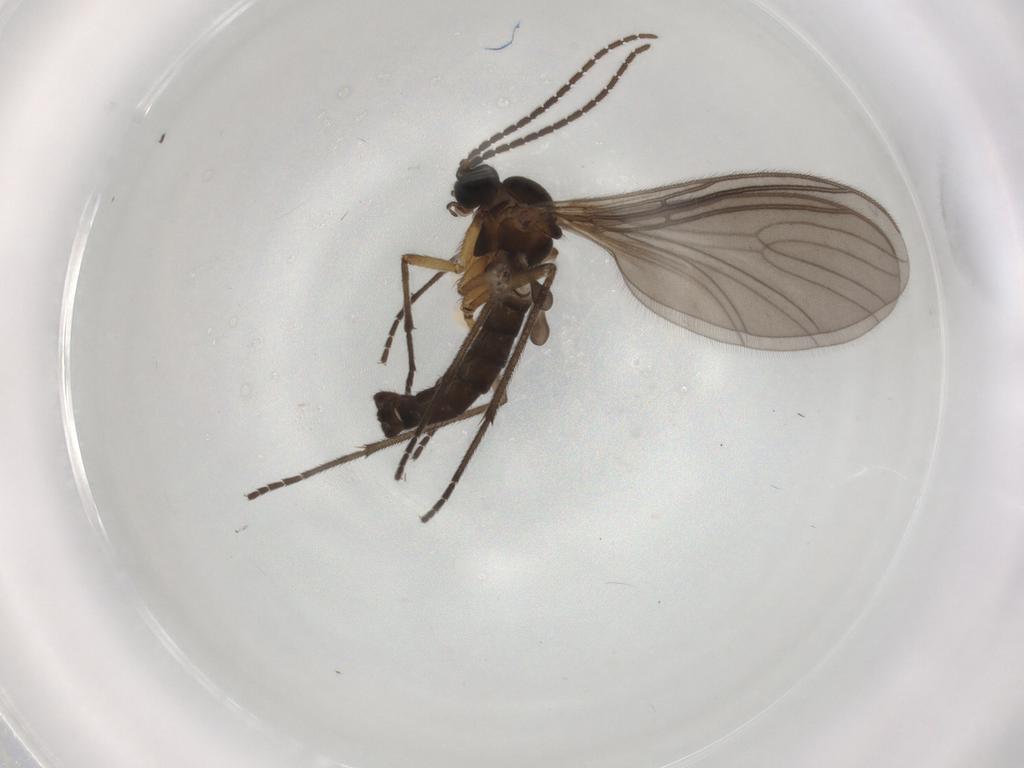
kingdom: Animalia
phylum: Arthropoda
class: Insecta
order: Diptera
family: Sciaridae
